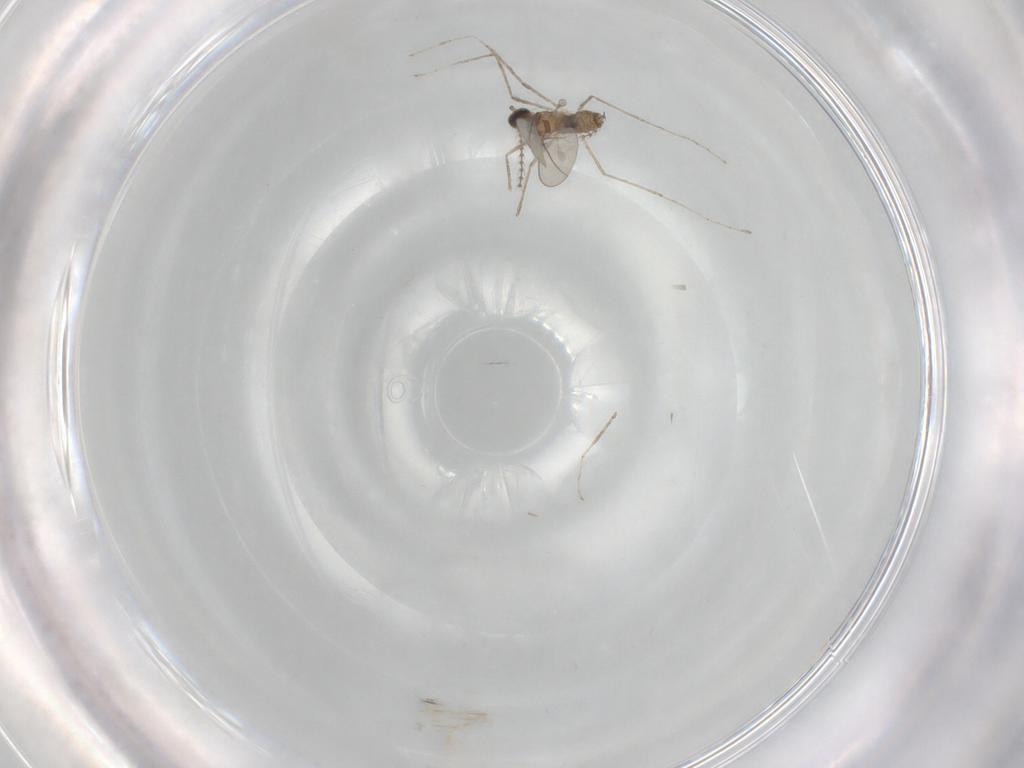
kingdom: Animalia
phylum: Arthropoda
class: Insecta
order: Diptera
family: Cecidomyiidae
